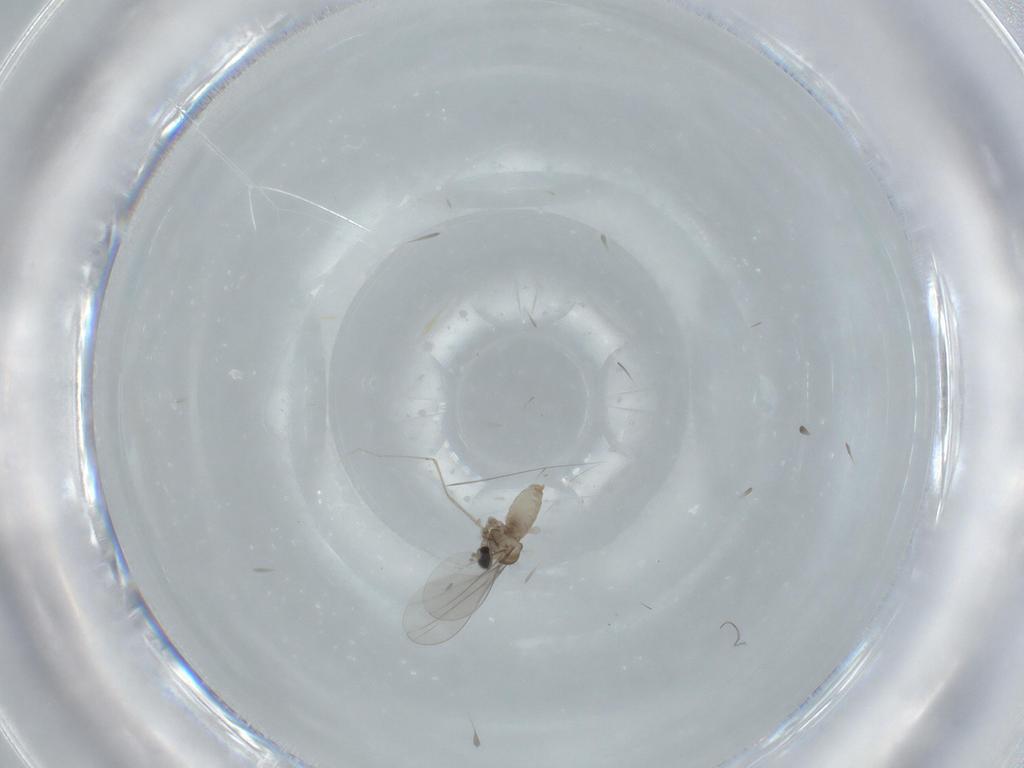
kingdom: Animalia
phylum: Arthropoda
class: Insecta
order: Diptera
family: Cecidomyiidae
